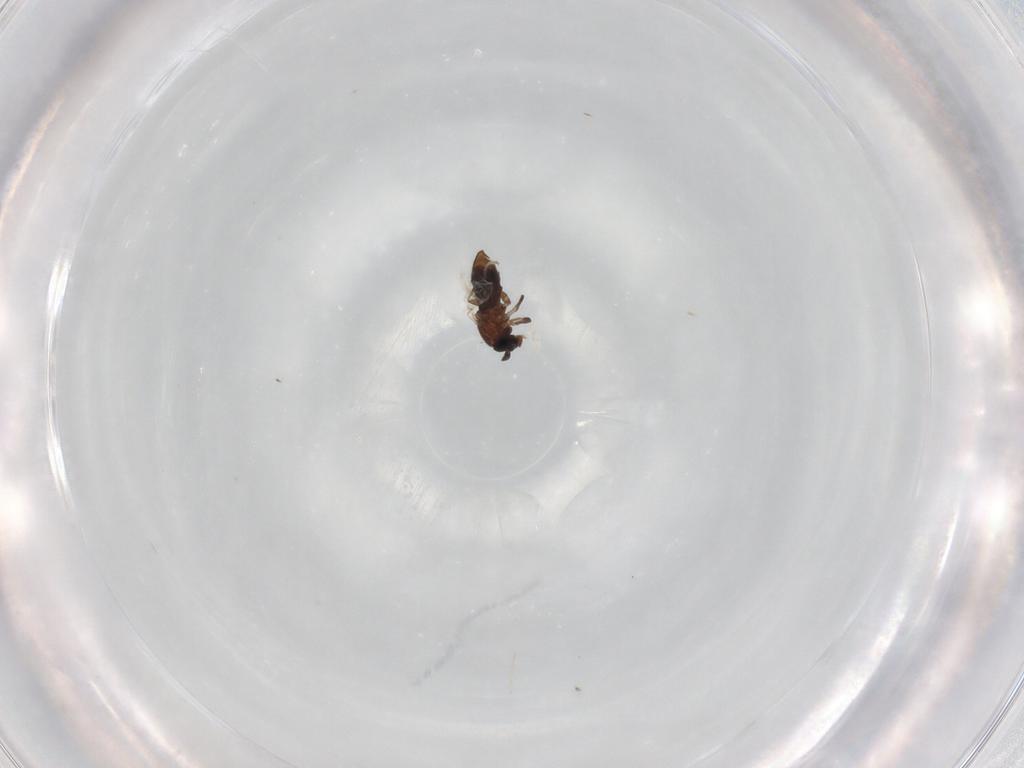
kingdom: Animalia
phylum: Arthropoda
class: Insecta
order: Diptera
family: Scatopsidae
